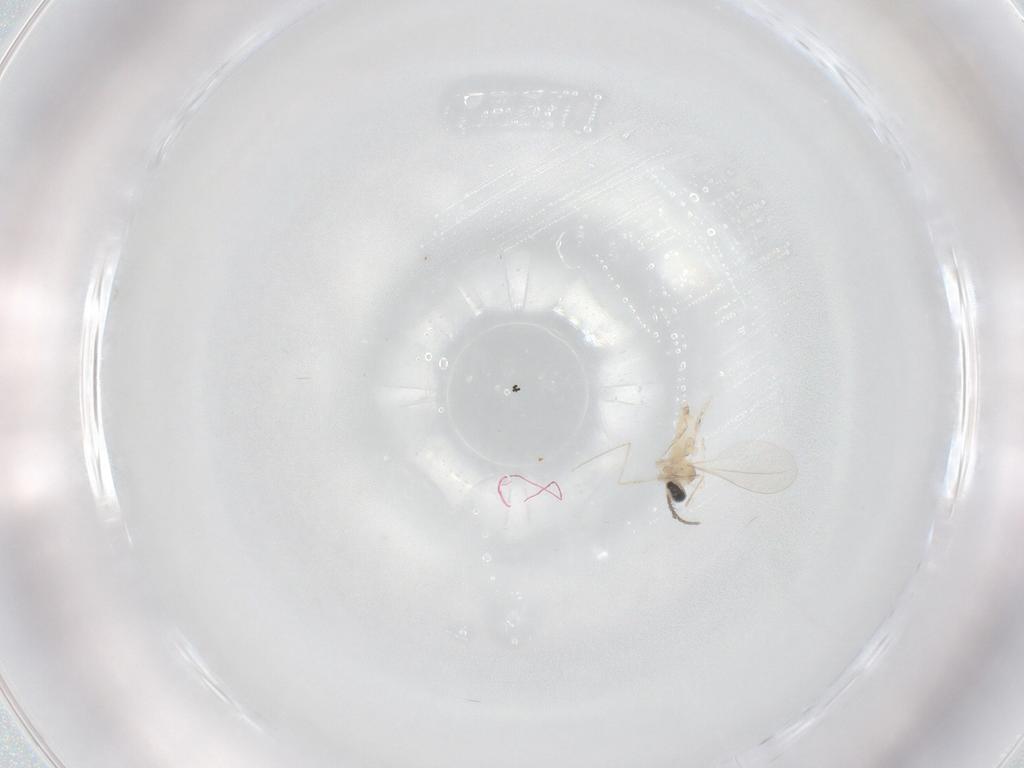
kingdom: Animalia
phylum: Arthropoda
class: Insecta
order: Diptera
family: Cecidomyiidae
